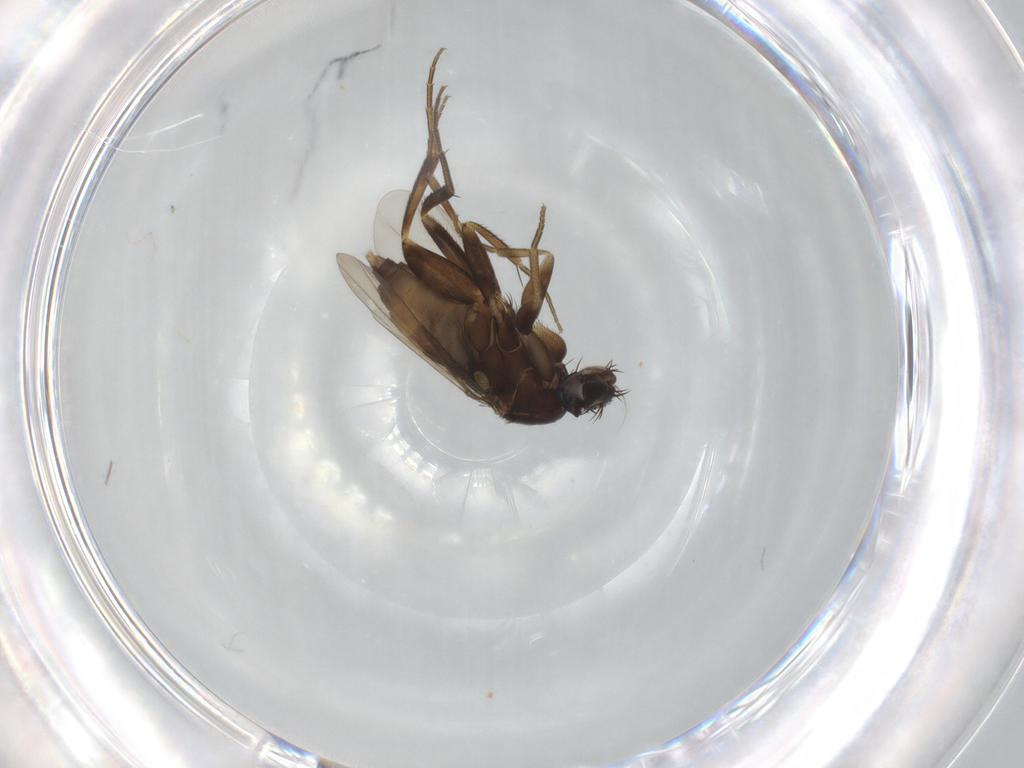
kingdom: Animalia
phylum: Arthropoda
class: Insecta
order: Diptera
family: Phoridae
